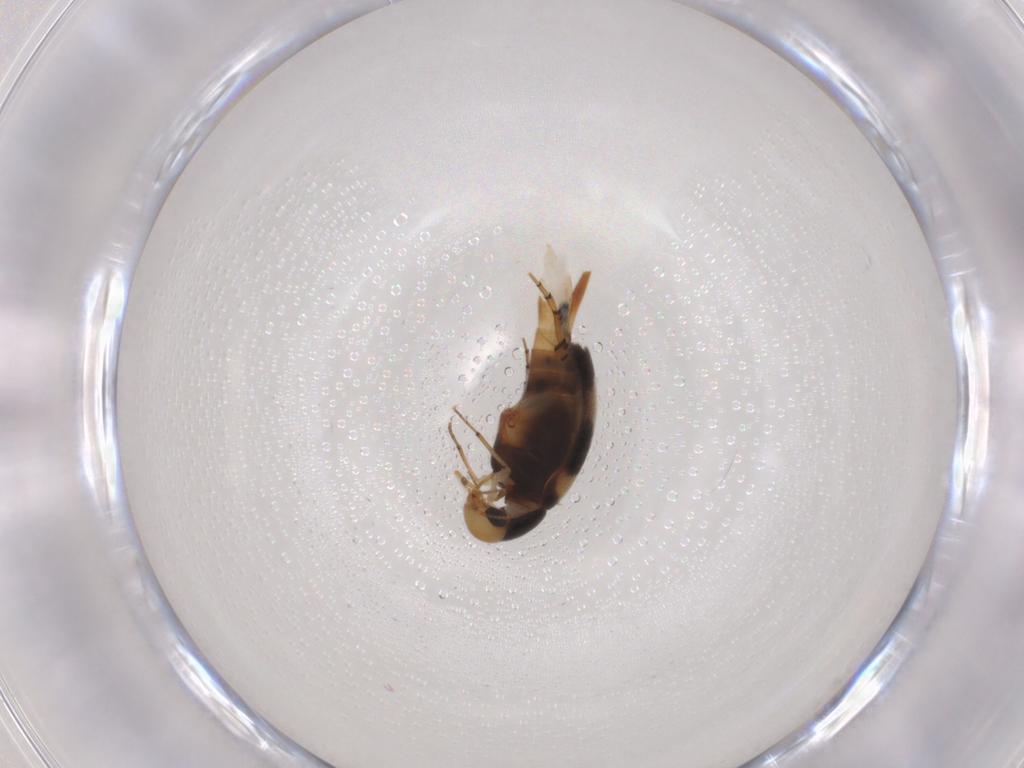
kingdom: Animalia
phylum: Arthropoda
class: Insecta
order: Coleoptera
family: Mordellidae
